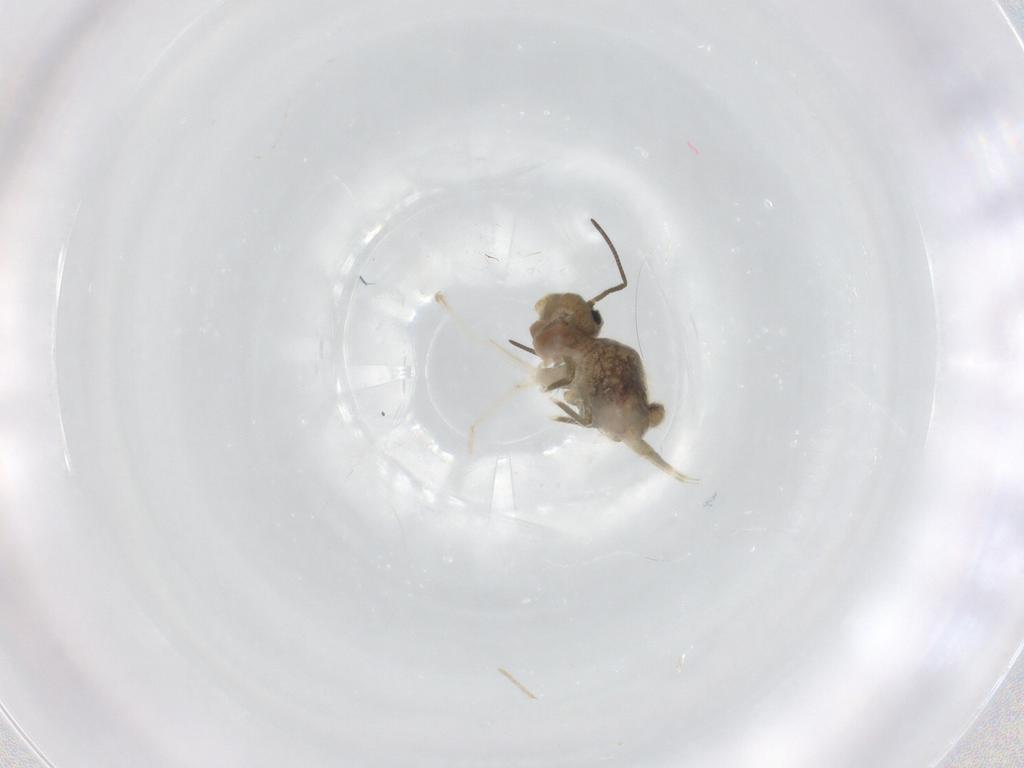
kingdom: Animalia
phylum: Arthropoda
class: Collembola
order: Symphypleona
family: Sminthuridae
